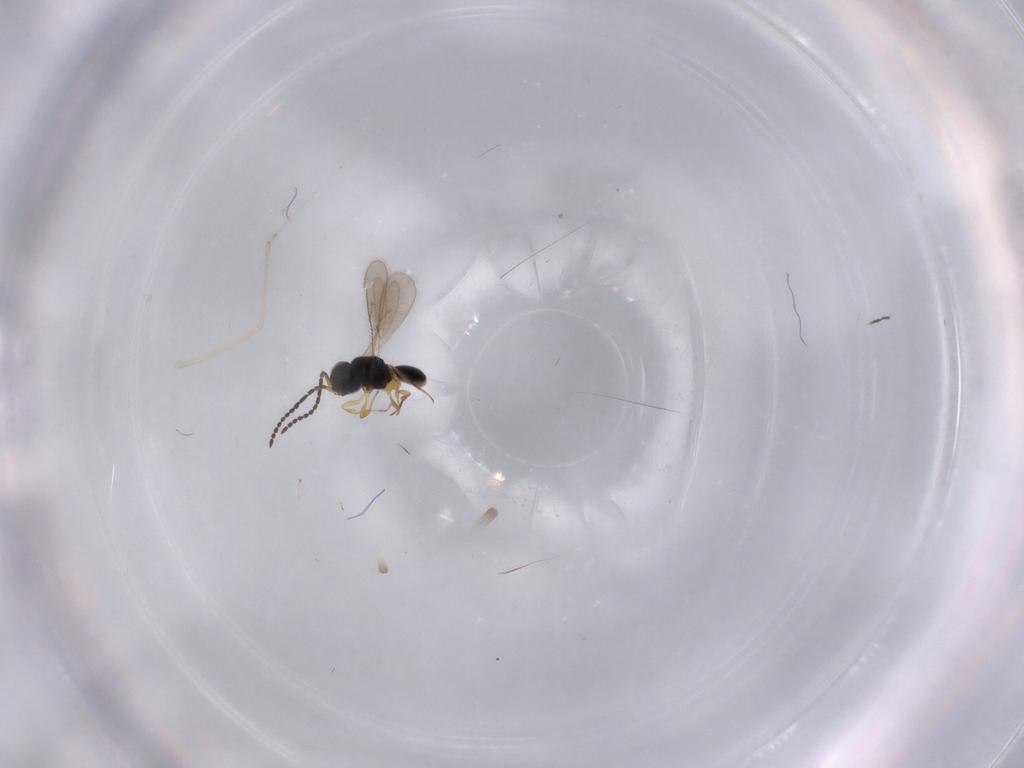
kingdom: Animalia
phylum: Arthropoda
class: Insecta
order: Hymenoptera
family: Scelionidae
